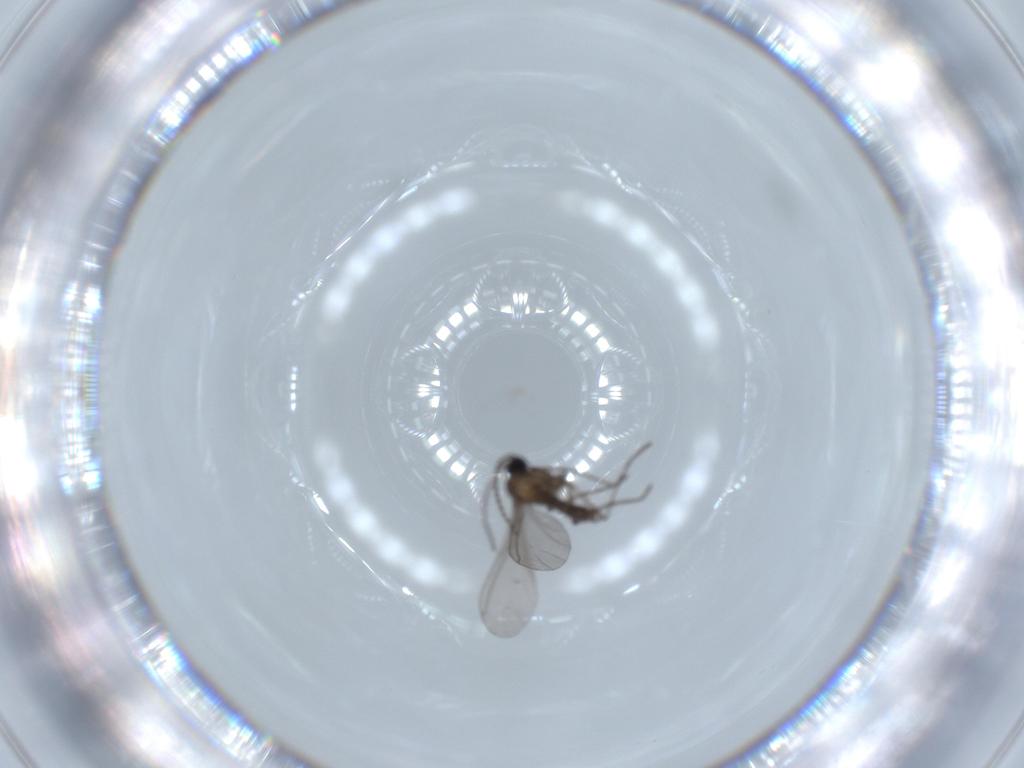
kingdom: Animalia
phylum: Arthropoda
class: Insecta
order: Diptera
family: Sciaridae
